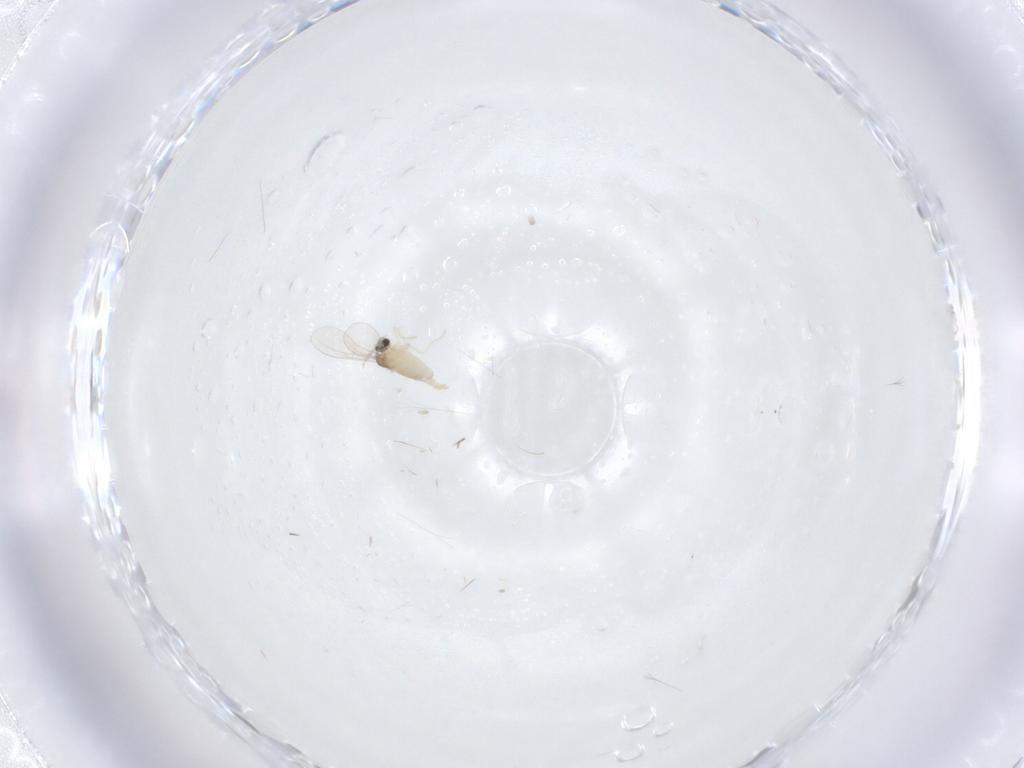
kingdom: Animalia
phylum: Arthropoda
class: Insecta
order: Diptera
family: Cecidomyiidae
